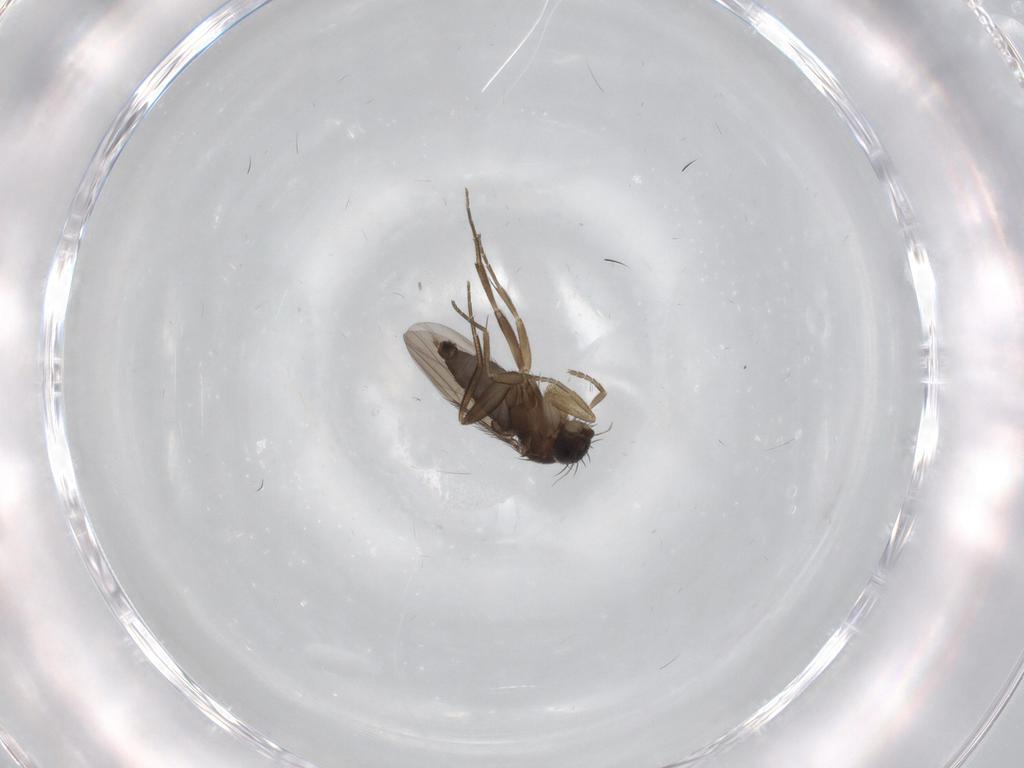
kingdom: Animalia
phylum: Arthropoda
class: Insecta
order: Diptera
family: Phoridae
